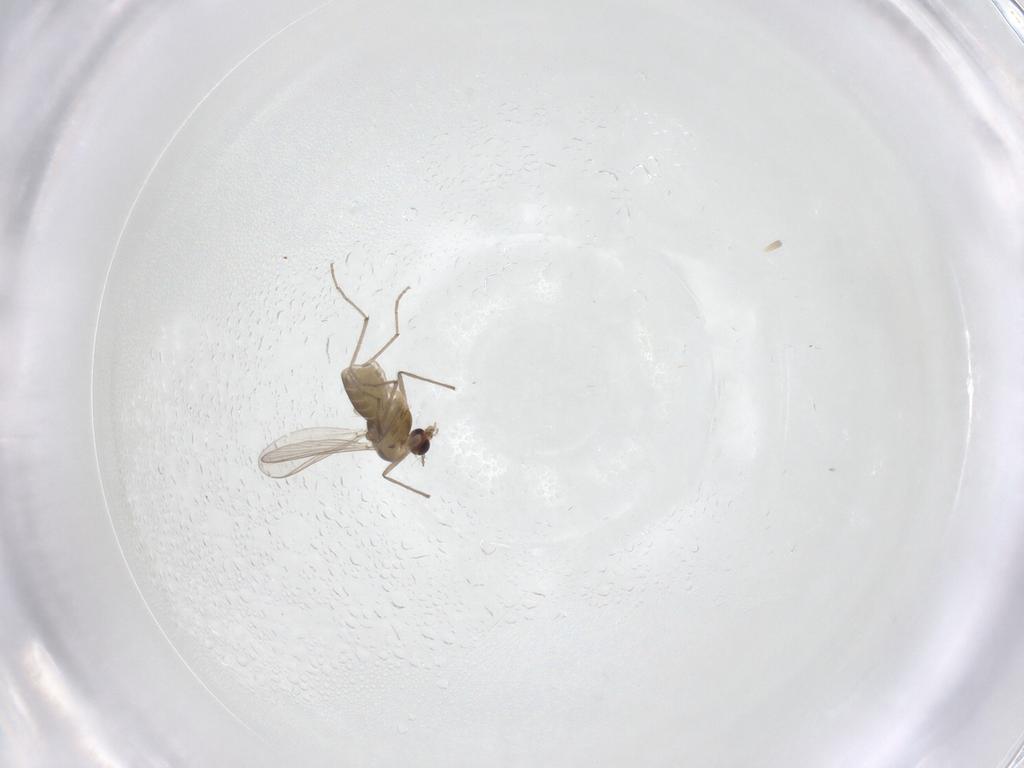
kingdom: Animalia
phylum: Arthropoda
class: Insecta
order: Diptera
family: Chironomidae
